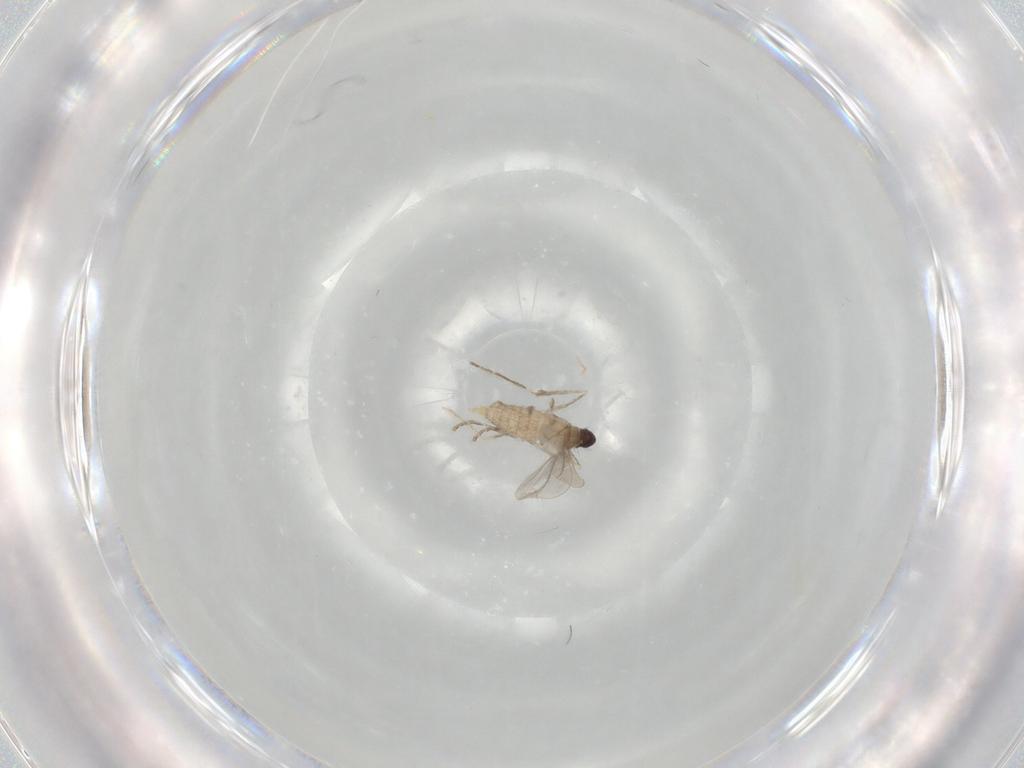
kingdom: Animalia
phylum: Arthropoda
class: Insecta
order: Diptera
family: Cecidomyiidae
